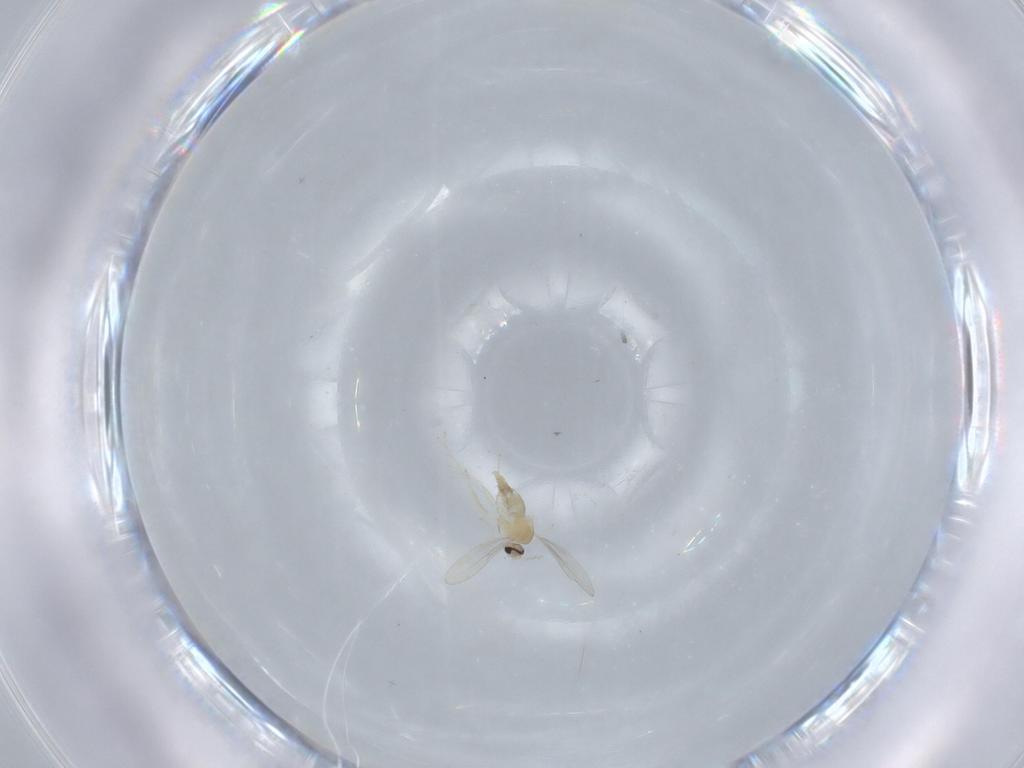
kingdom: Animalia
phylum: Arthropoda
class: Insecta
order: Diptera
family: Cecidomyiidae
